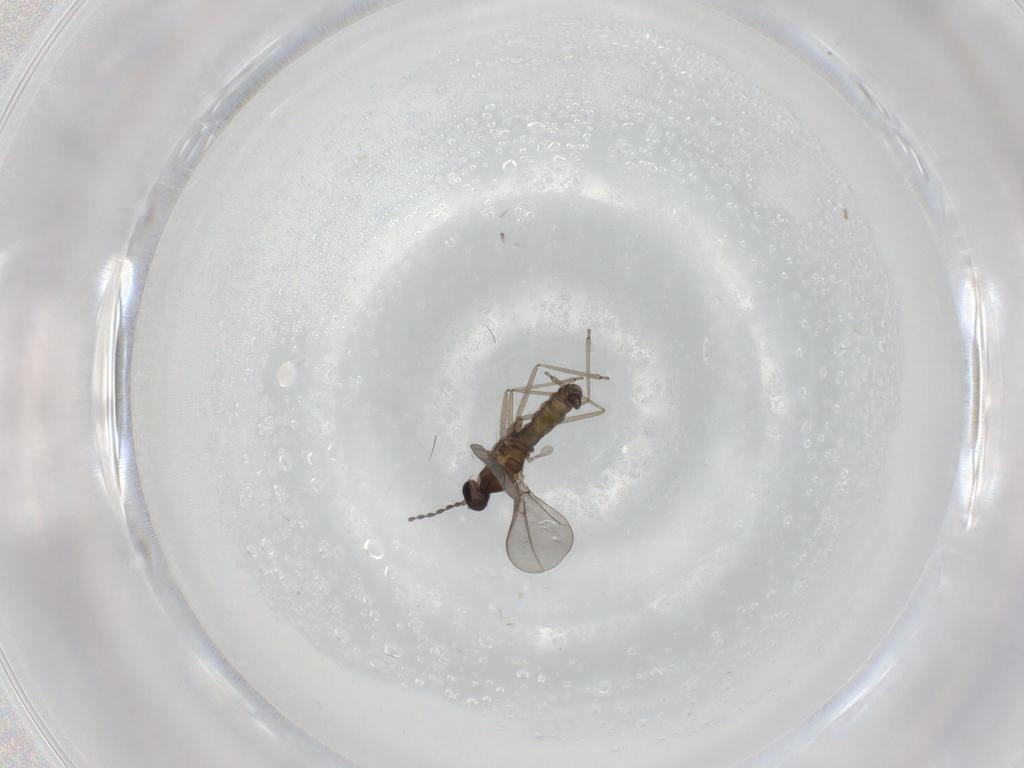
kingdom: Animalia
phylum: Arthropoda
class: Insecta
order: Diptera
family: Cecidomyiidae
